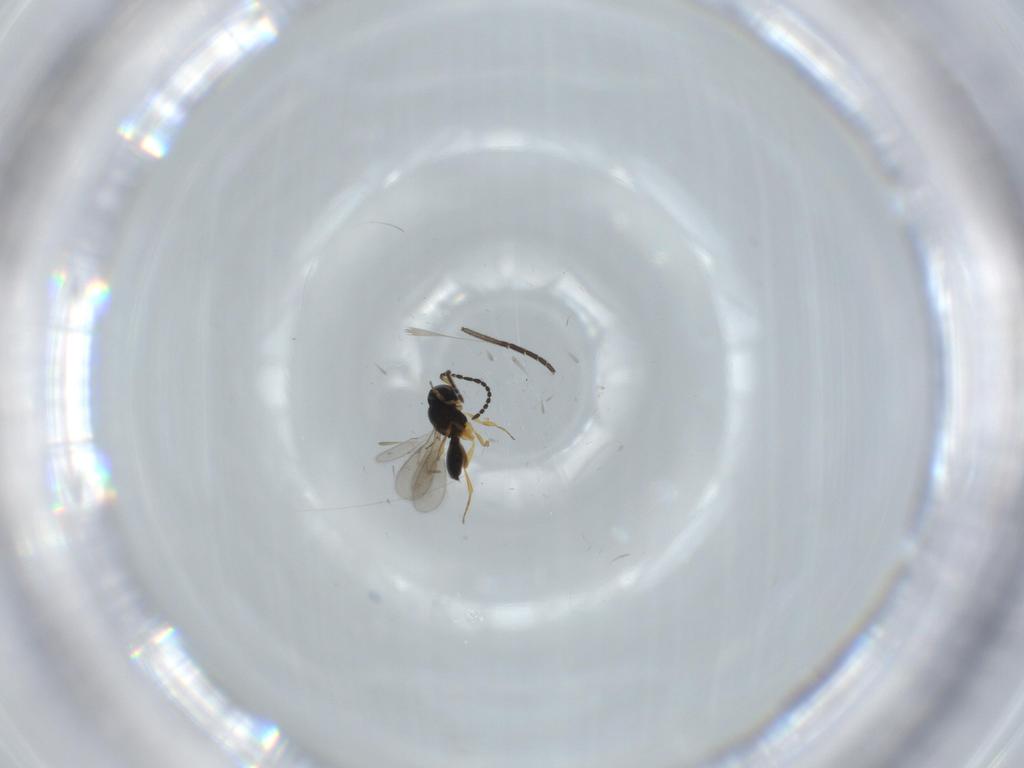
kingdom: Animalia
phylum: Arthropoda
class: Insecta
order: Hymenoptera
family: Scelionidae
